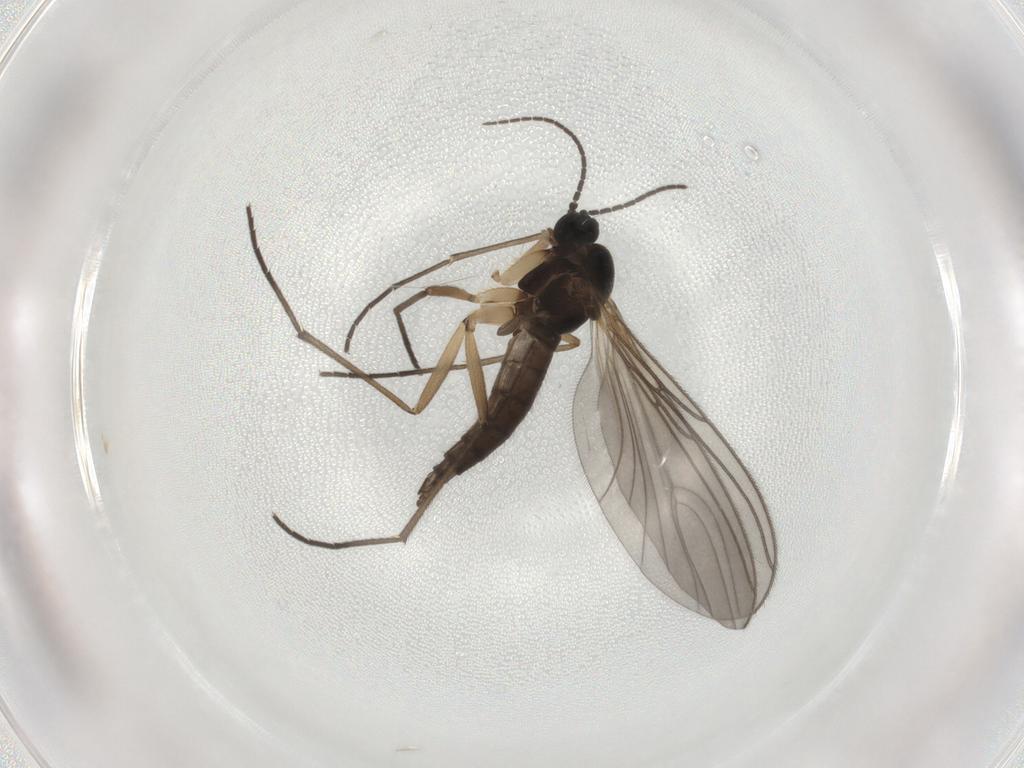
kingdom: Animalia
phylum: Arthropoda
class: Insecta
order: Diptera
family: Sciaridae
